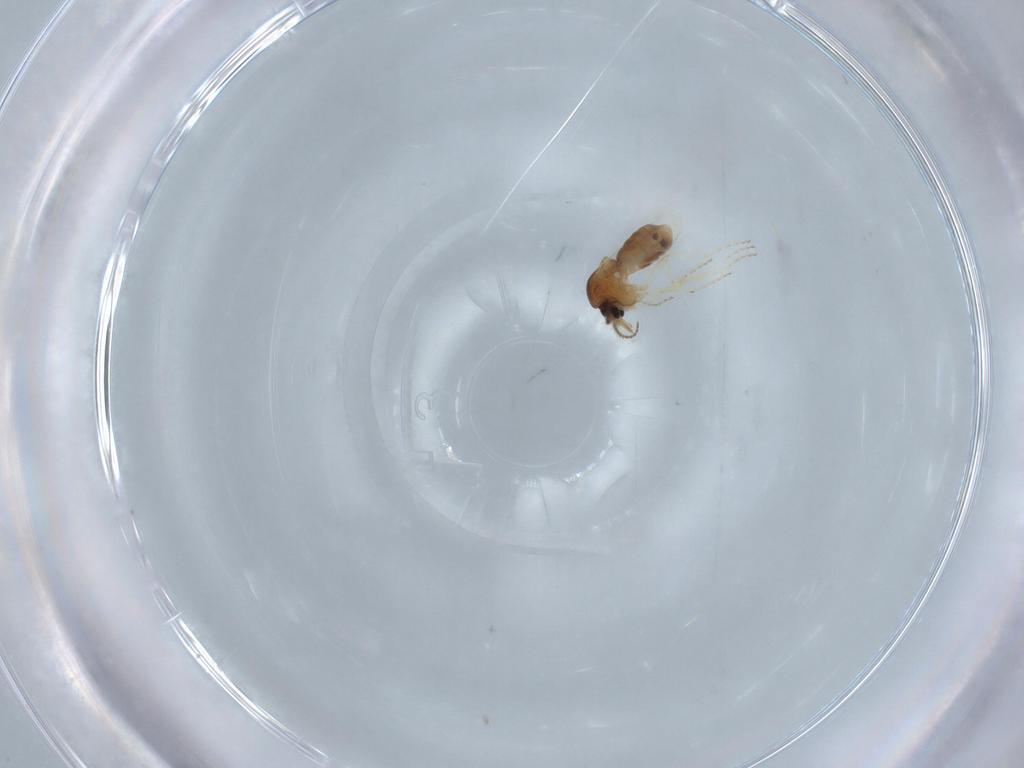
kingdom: Animalia
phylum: Arthropoda
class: Insecta
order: Diptera
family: Ceratopogonidae
